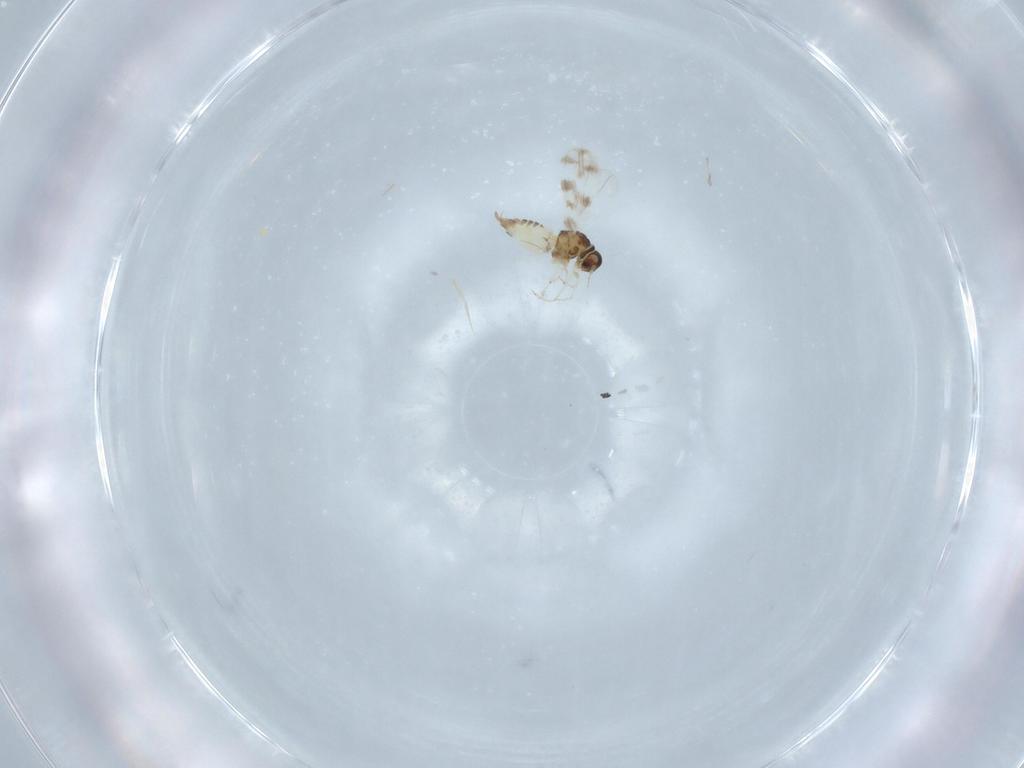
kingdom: Animalia
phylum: Arthropoda
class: Insecta
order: Hemiptera
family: Aleyrodidae
